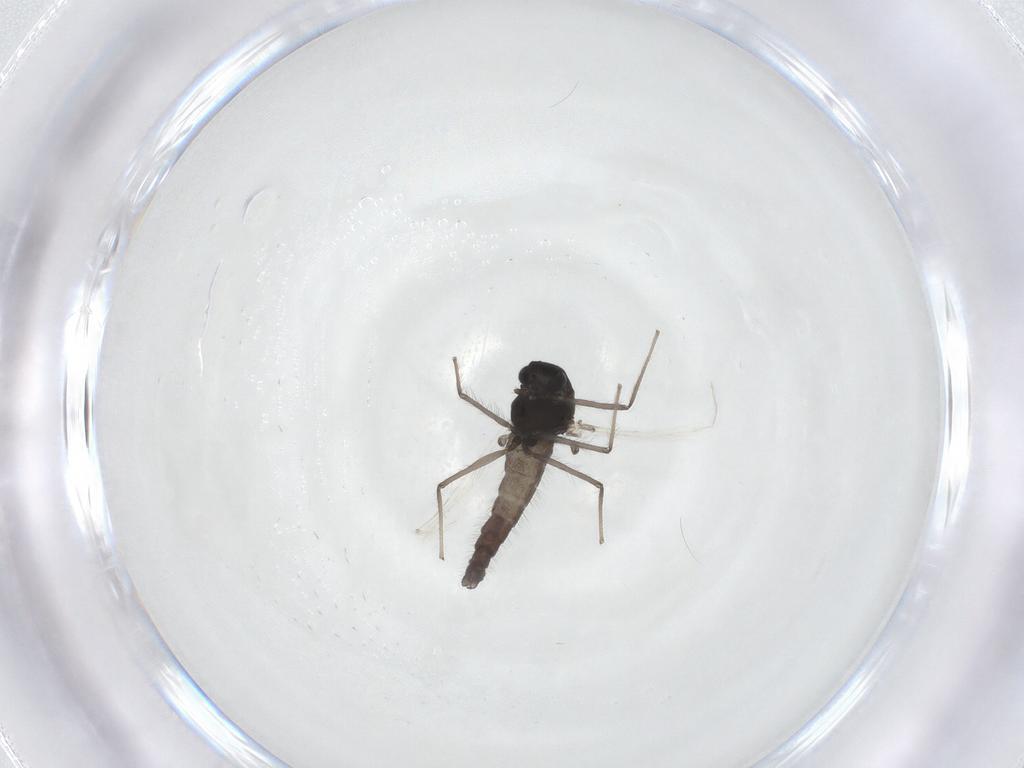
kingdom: Animalia
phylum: Arthropoda
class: Insecta
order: Diptera
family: Chironomidae
